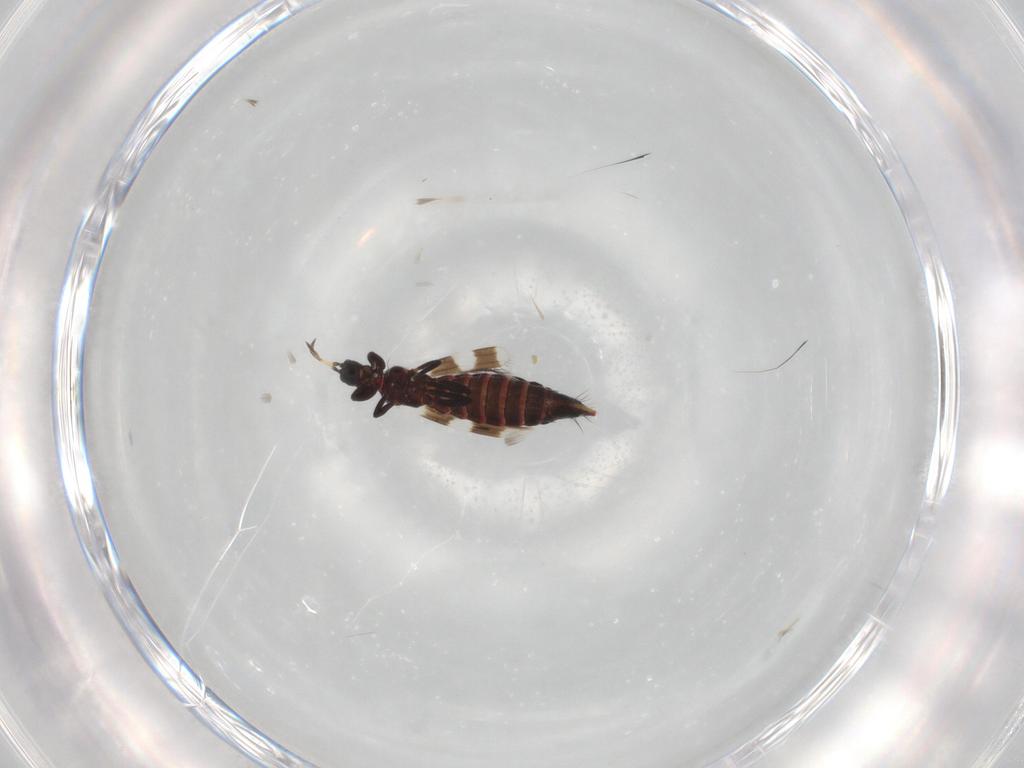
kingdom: Animalia
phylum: Arthropoda
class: Insecta
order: Thysanoptera
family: Aeolothripidae
